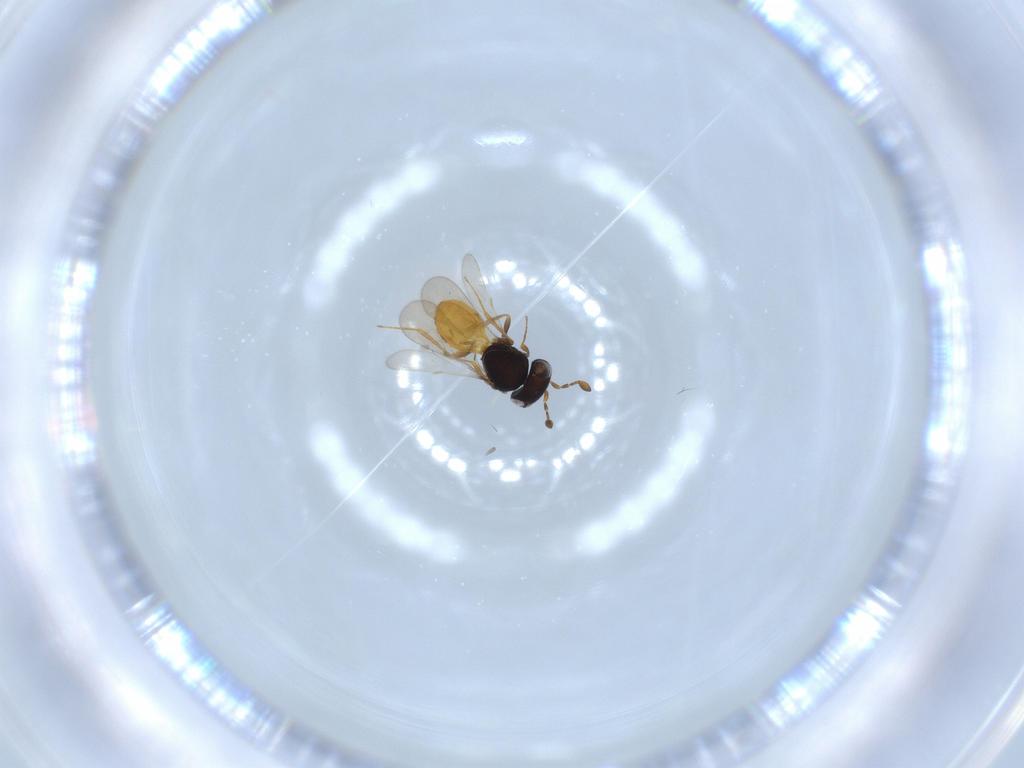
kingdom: Animalia
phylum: Arthropoda
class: Insecta
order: Hymenoptera
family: Scelionidae
